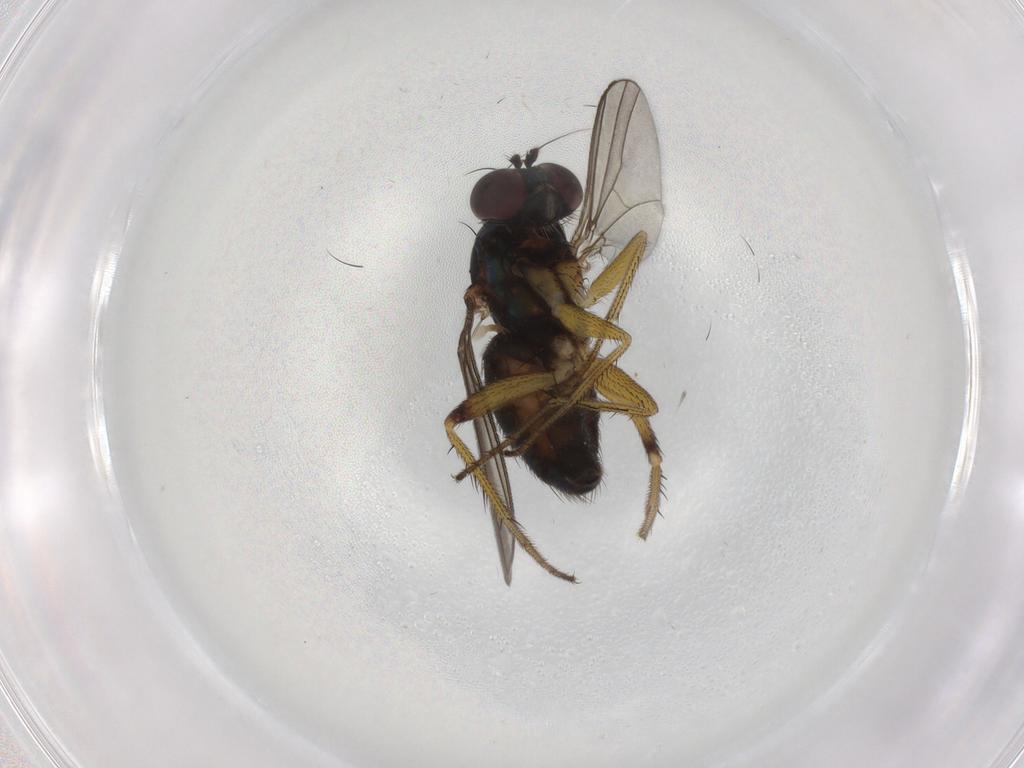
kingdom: Animalia
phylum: Arthropoda
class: Insecta
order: Diptera
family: Dolichopodidae
